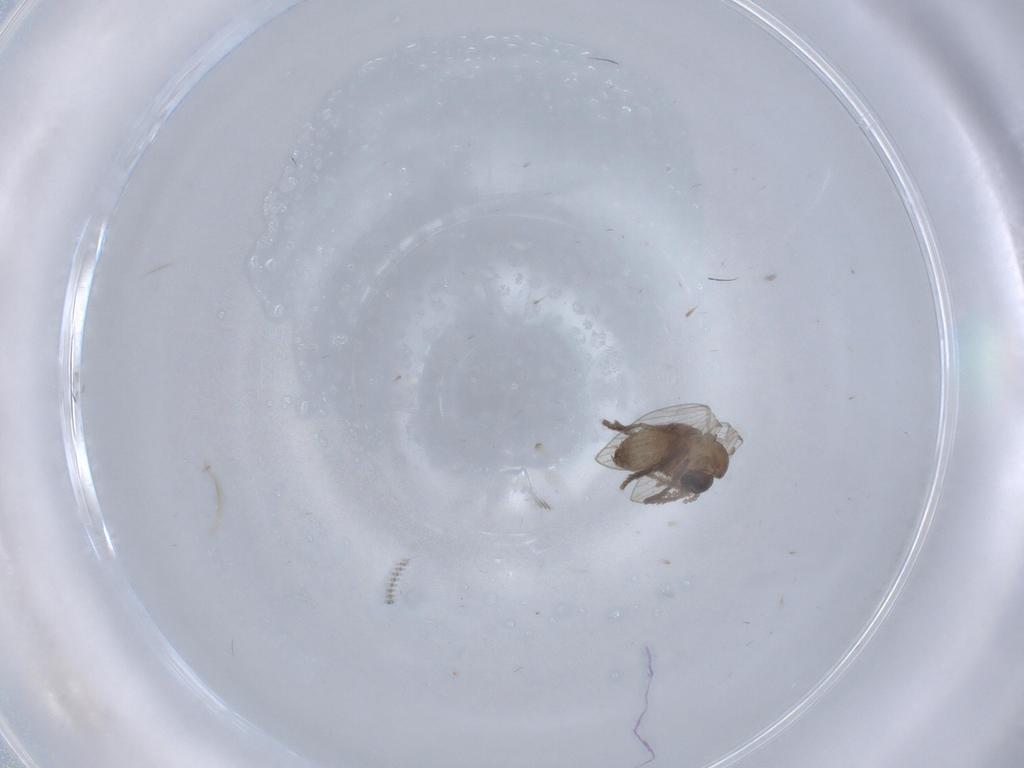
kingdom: Animalia
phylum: Arthropoda
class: Insecta
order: Diptera
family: Psychodidae
